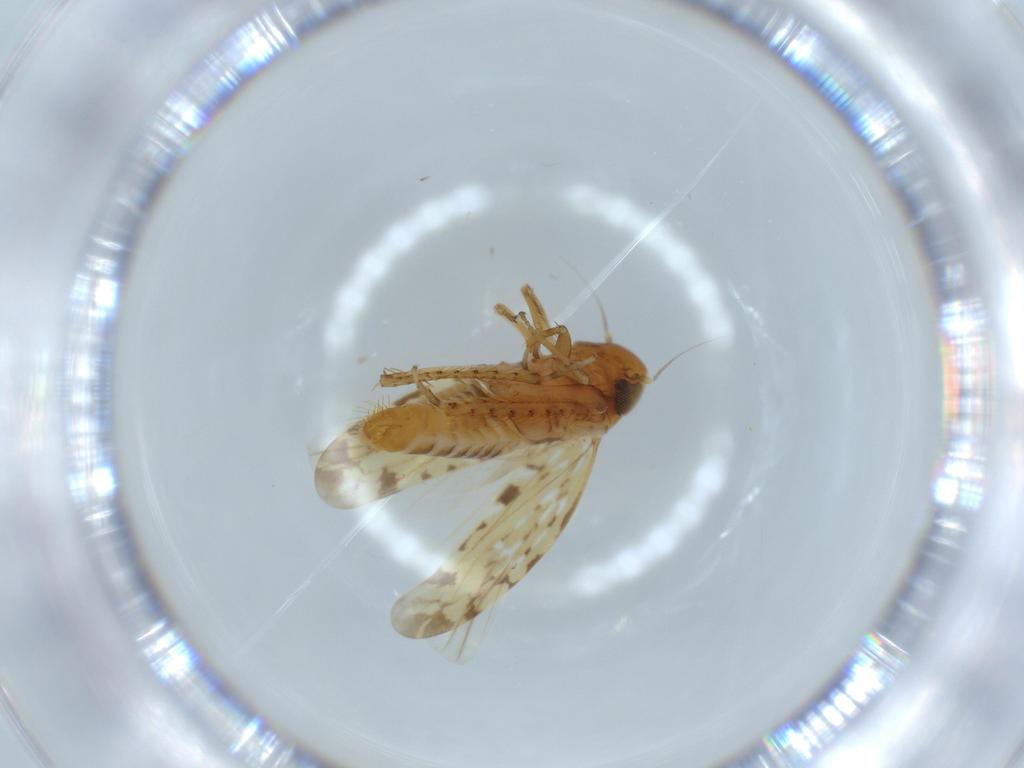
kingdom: Animalia
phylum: Arthropoda
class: Insecta
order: Hemiptera
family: Cicadellidae
